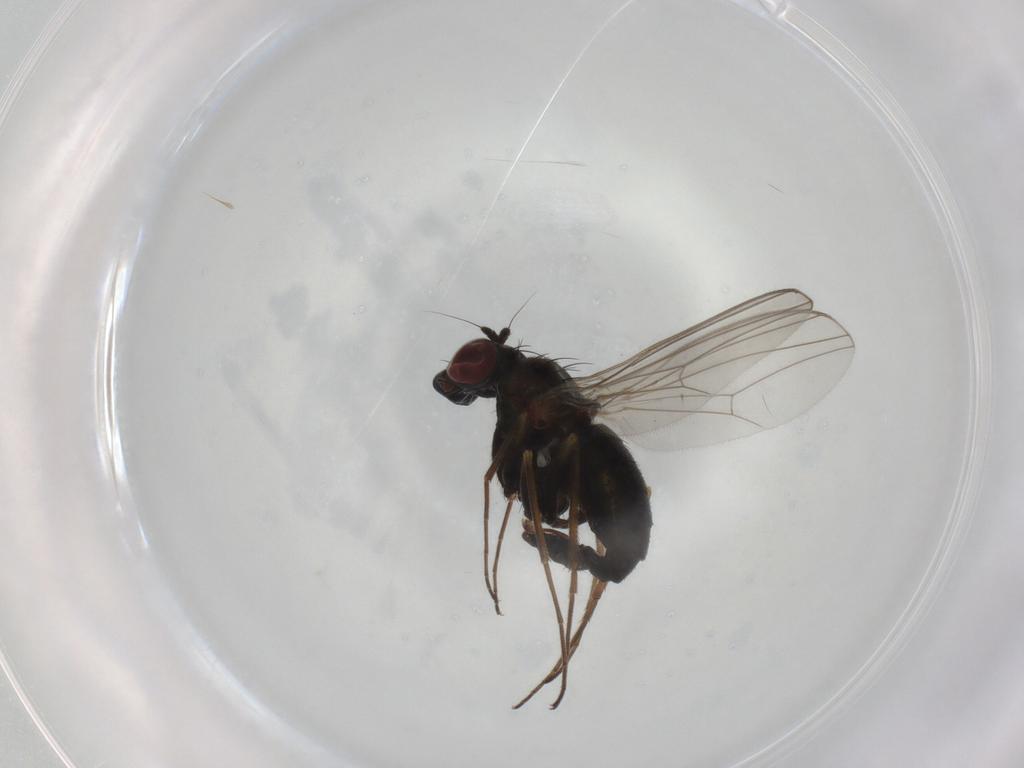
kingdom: Animalia
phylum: Arthropoda
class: Insecta
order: Diptera
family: Dolichopodidae
